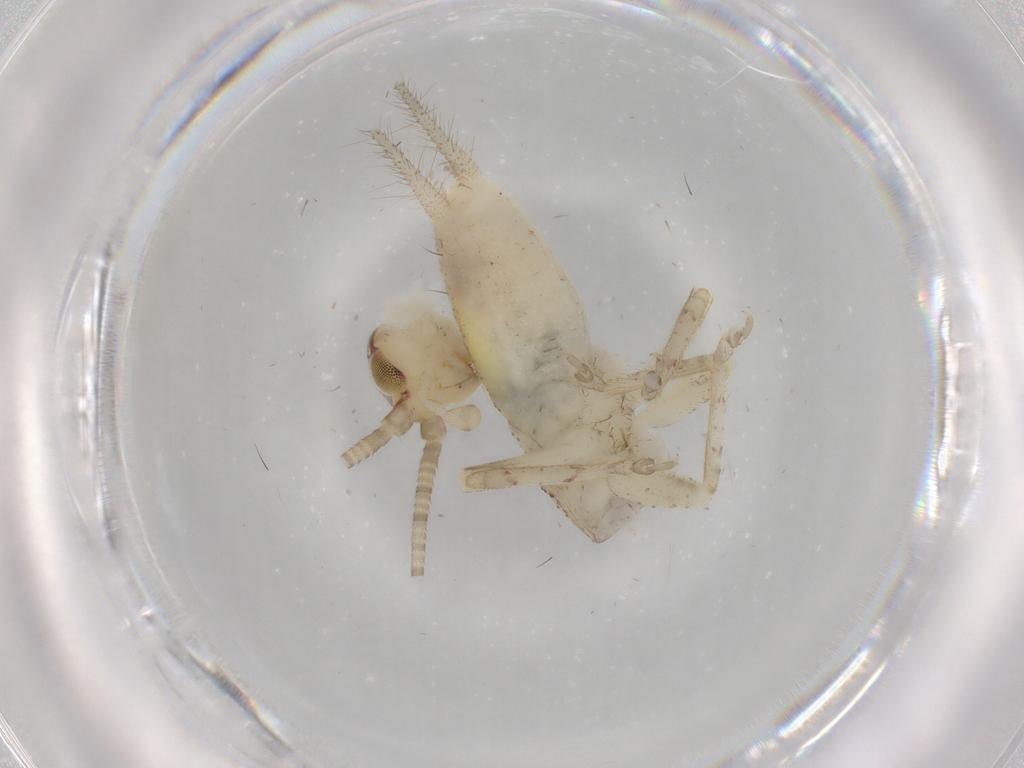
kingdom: Animalia
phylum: Arthropoda
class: Insecta
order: Orthoptera
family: Gryllidae
